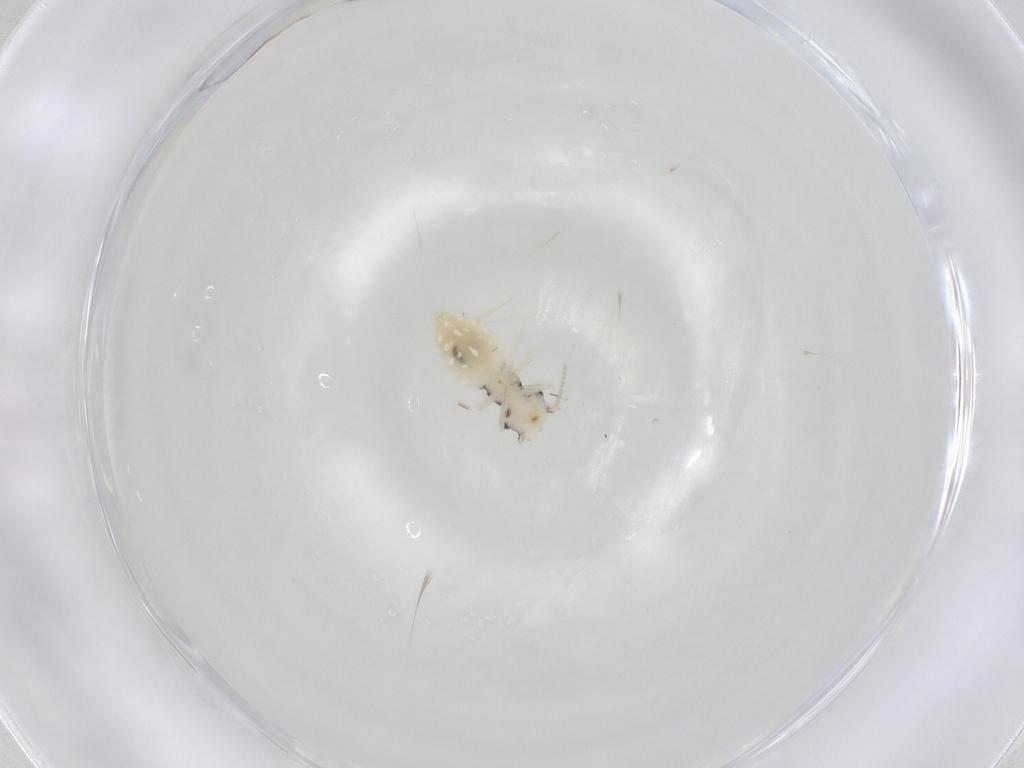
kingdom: Animalia
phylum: Arthropoda
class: Insecta
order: Psocodea
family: Philotarsidae
